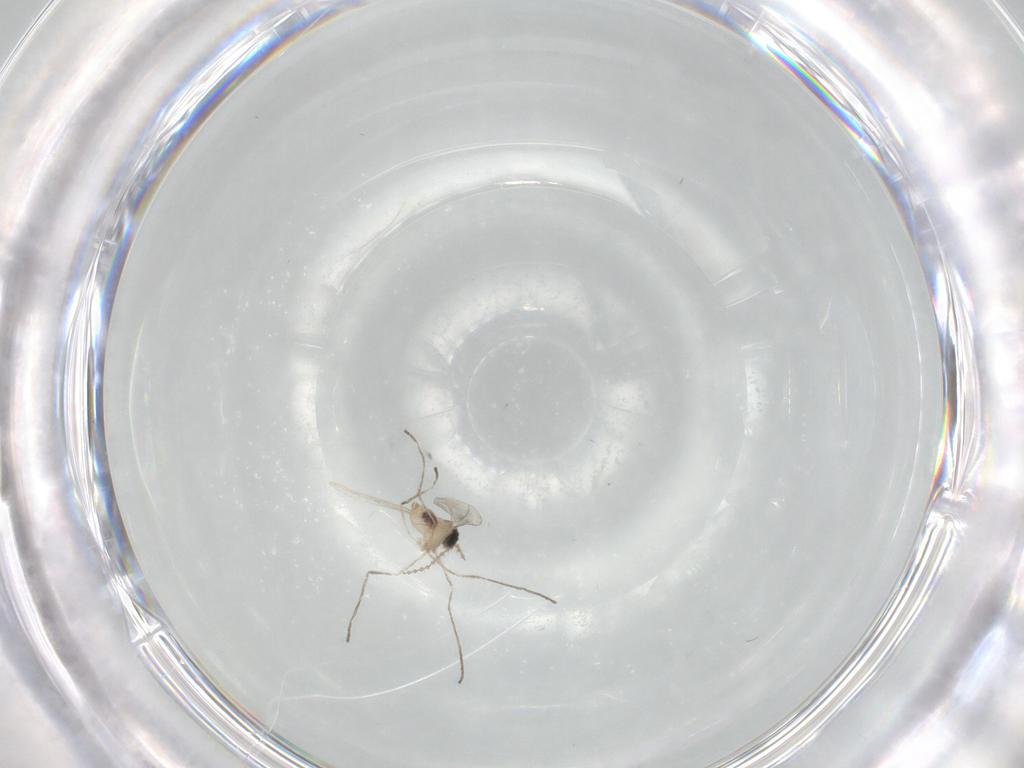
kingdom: Animalia
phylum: Arthropoda
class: Insecta
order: Diptera
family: Cecidomyiidae
